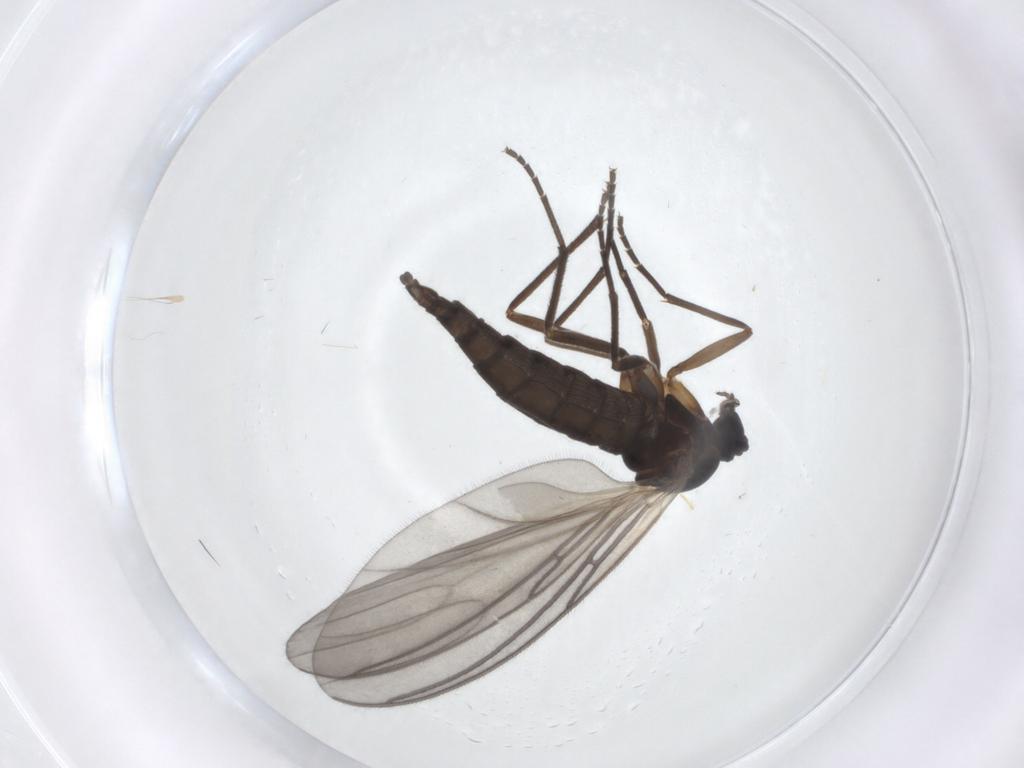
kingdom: Animalia
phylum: Arthropoda
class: Insecta
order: Diptera
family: Sciaridae
